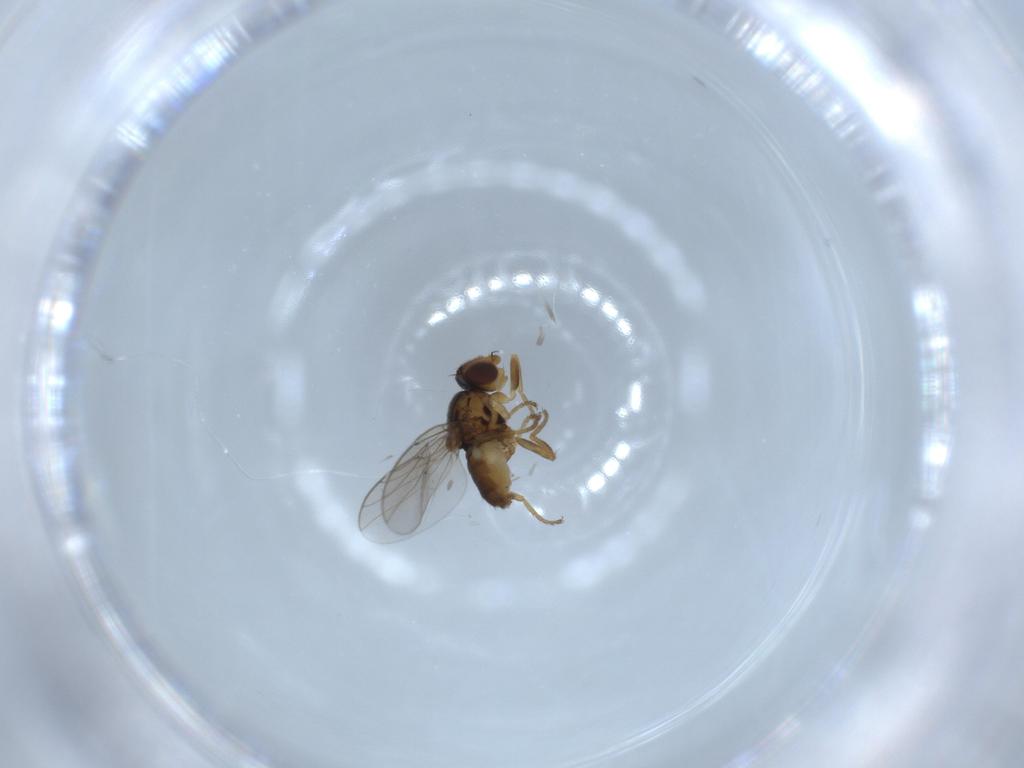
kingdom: Animalia
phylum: Arthropoda
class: Insecta
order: Diptera
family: Chloropidae
